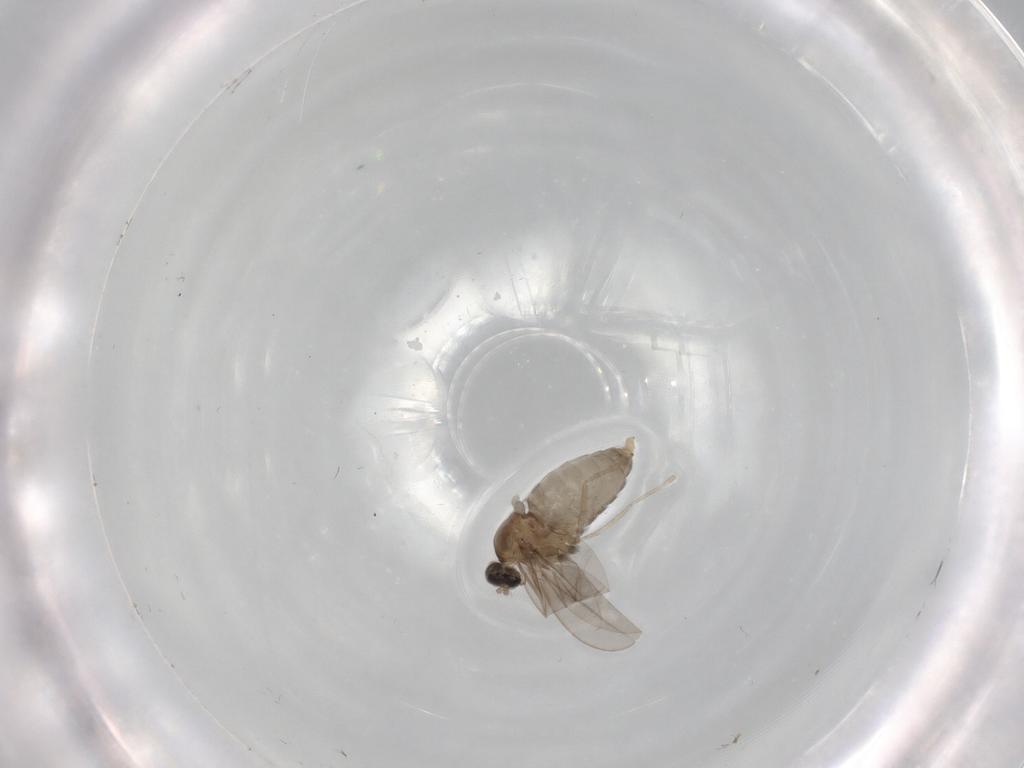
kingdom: Animalia
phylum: Arthropoda
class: Insecta
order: Diptera
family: Ceratopogonidae
